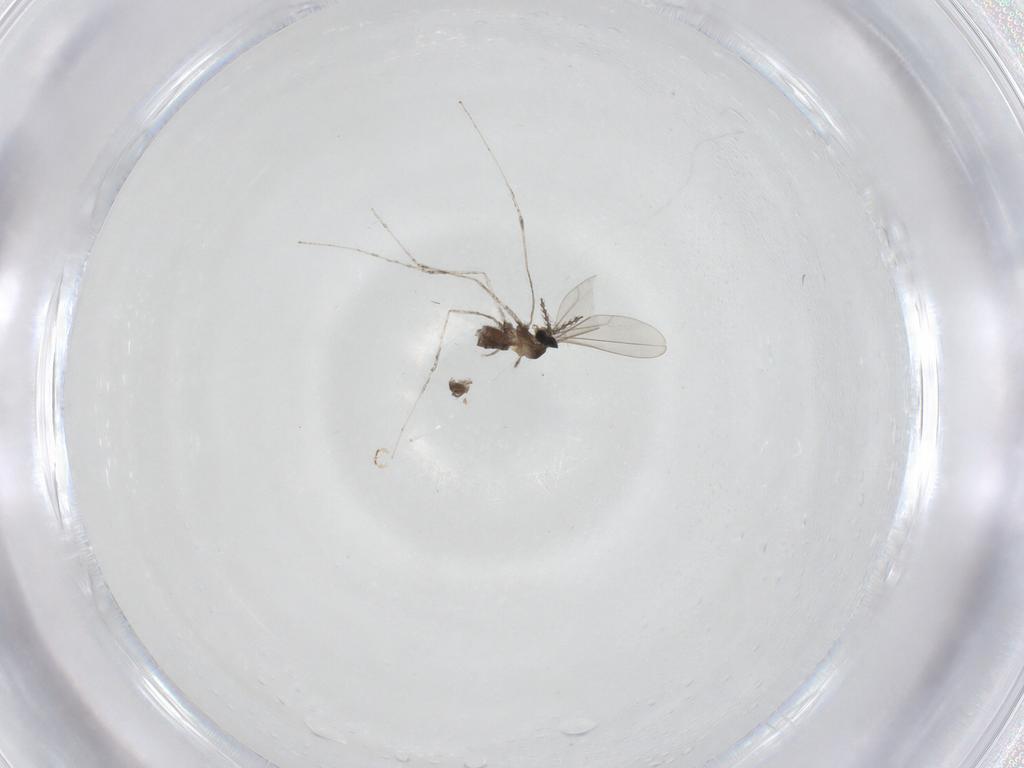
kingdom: Animalia
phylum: Arthropoda
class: Insecta
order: Diptera
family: Cecidomyiidae
